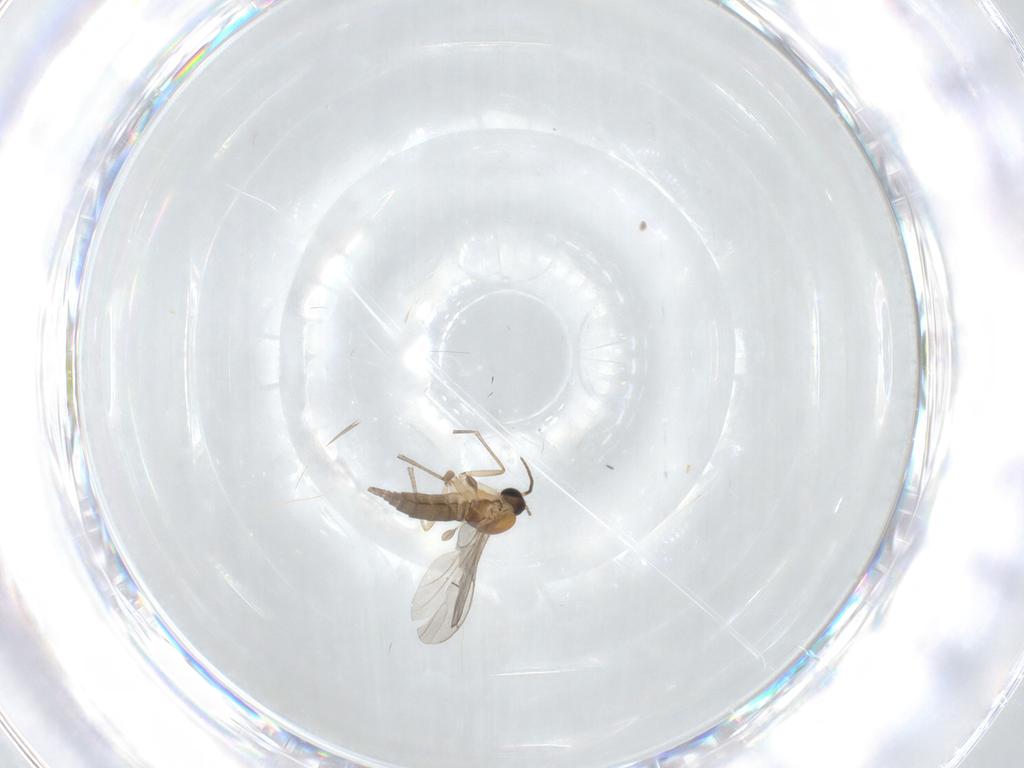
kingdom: Animalia
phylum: Arthropoda
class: Insecta
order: Diptera
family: Sciaridae
